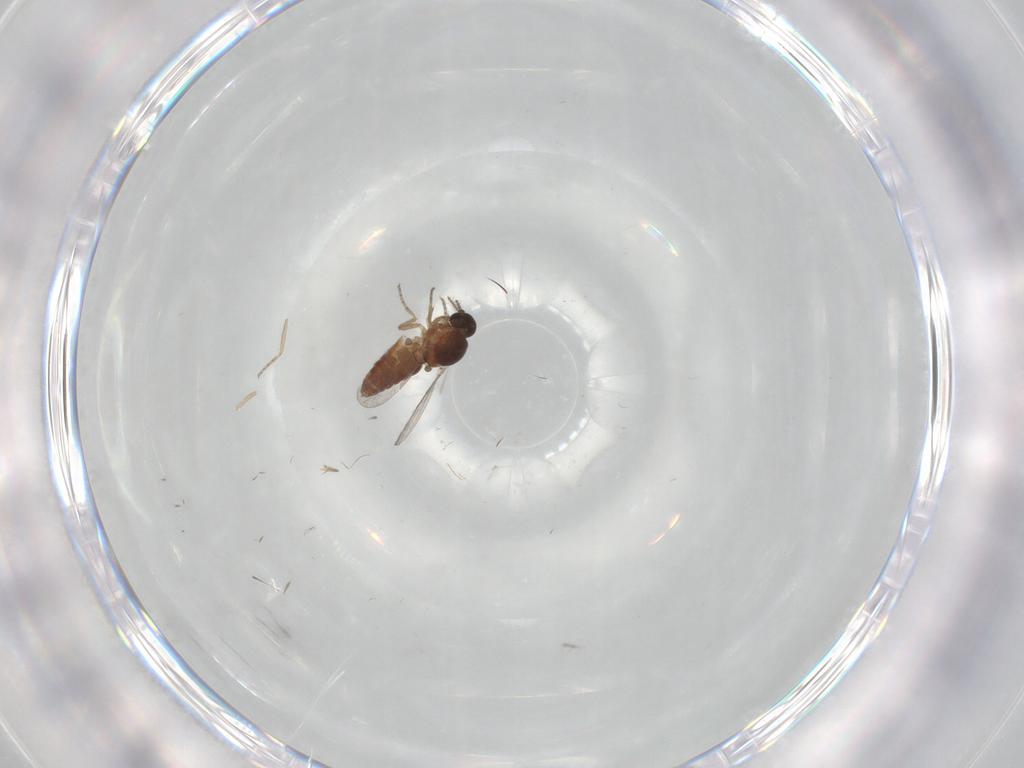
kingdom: Animalia
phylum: Arthropoda
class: Insecta
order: Diptera
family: Ceratopogonidae
